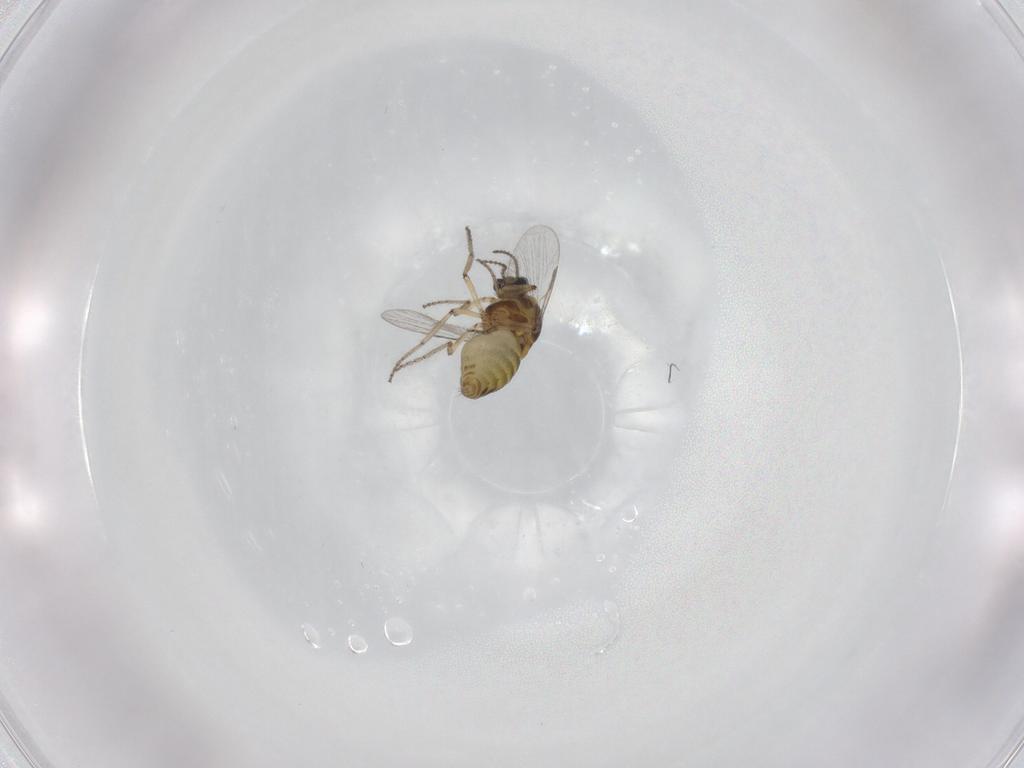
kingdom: Animalia
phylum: Arthropoda
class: Insecta
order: Diptera
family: Ceratopogonidae
